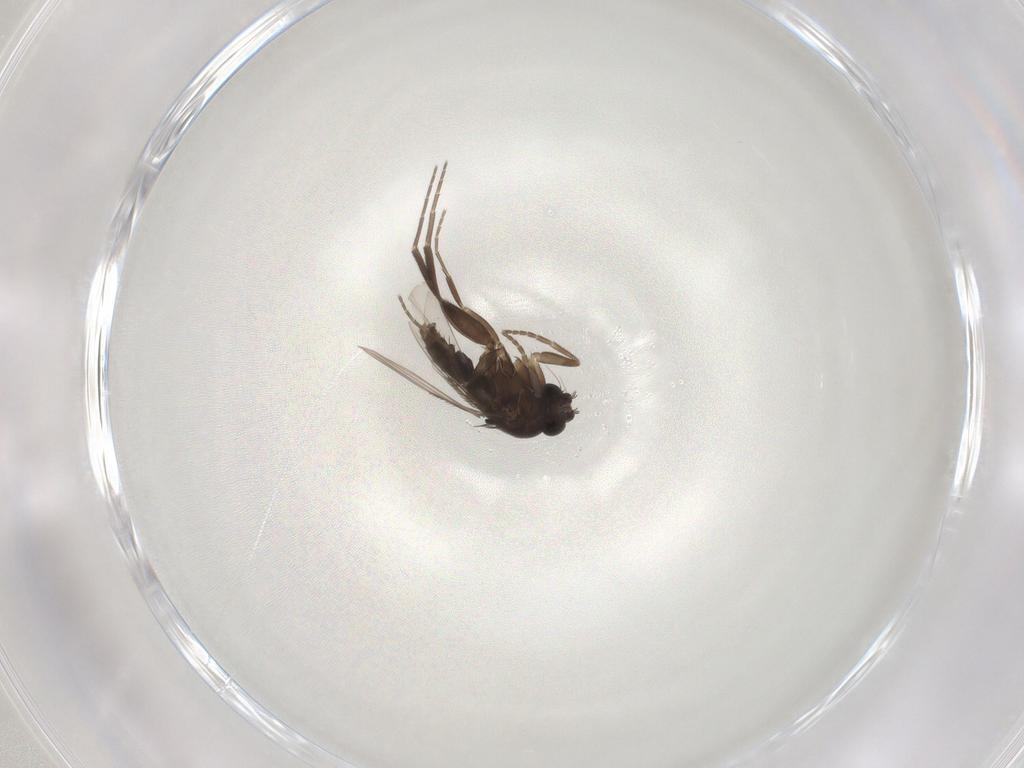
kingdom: Animalia
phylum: Arthropoda
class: Insecta
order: Diptera
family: Phoridae
